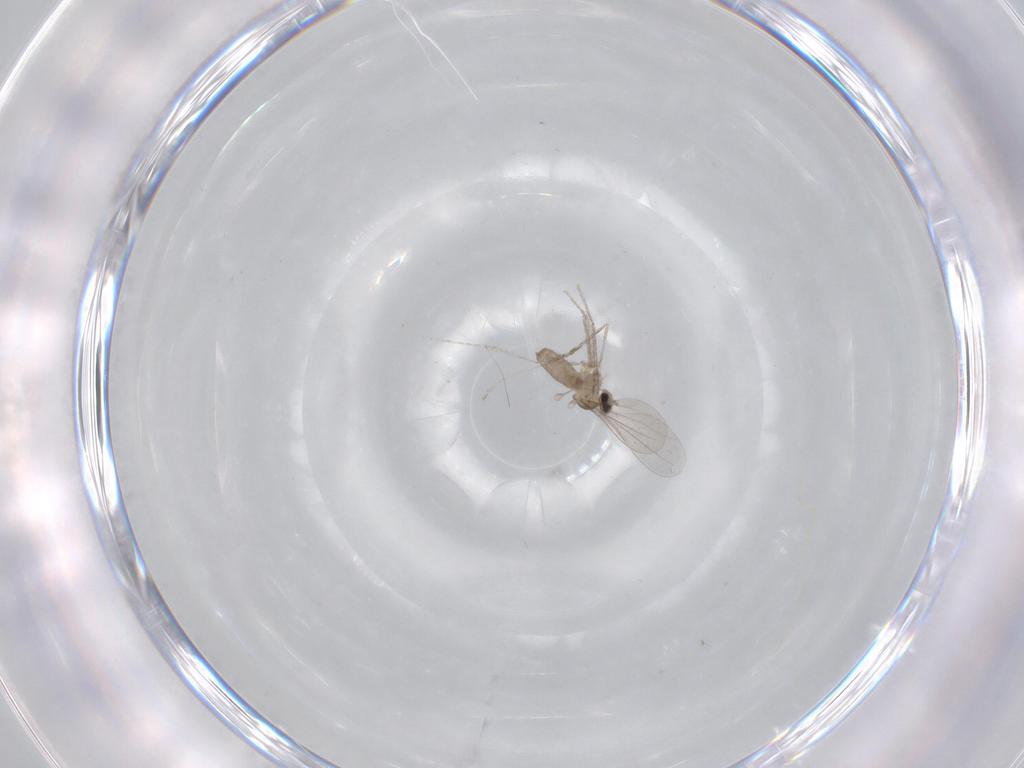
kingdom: Animalia
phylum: Arthropoda
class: Insecta
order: Diptera
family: Cecidomyiidae
